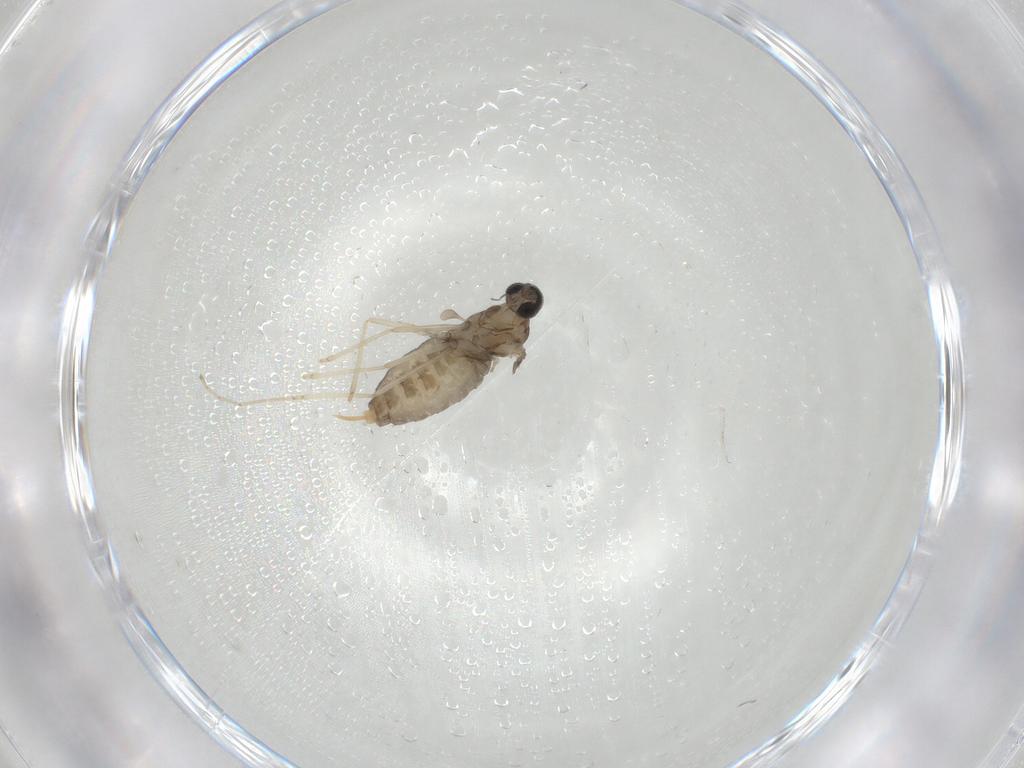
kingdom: Animalia
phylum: Arthropoda
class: Insecta
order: Diptera
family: Cecidomyiidae
